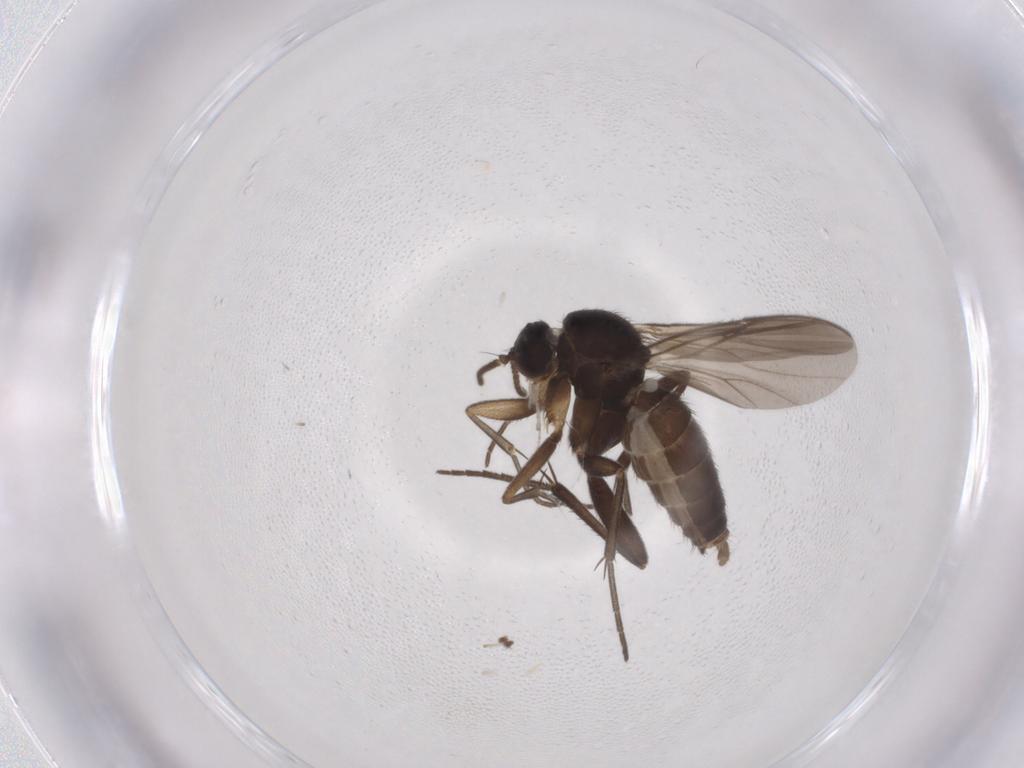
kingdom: Animalia
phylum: Arthropoda
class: Insecta
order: Diptera
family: Mycetophilidae
